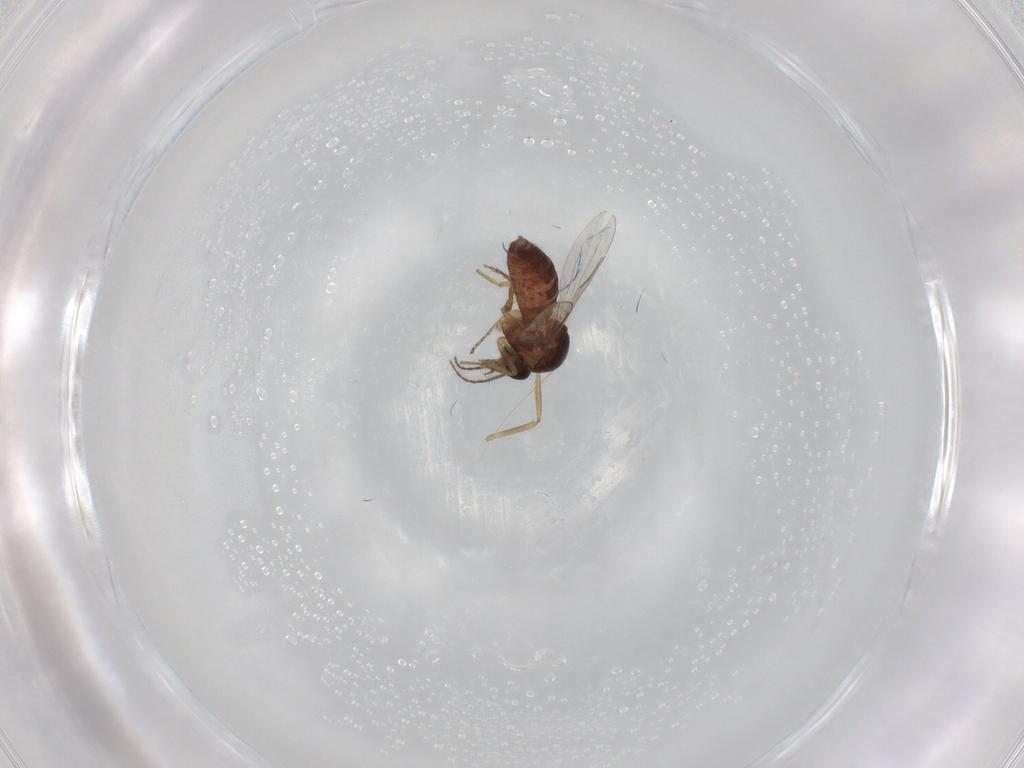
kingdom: Animalia
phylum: Arthropoda
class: Insecta
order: Diptera
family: Ceratopogonidae
